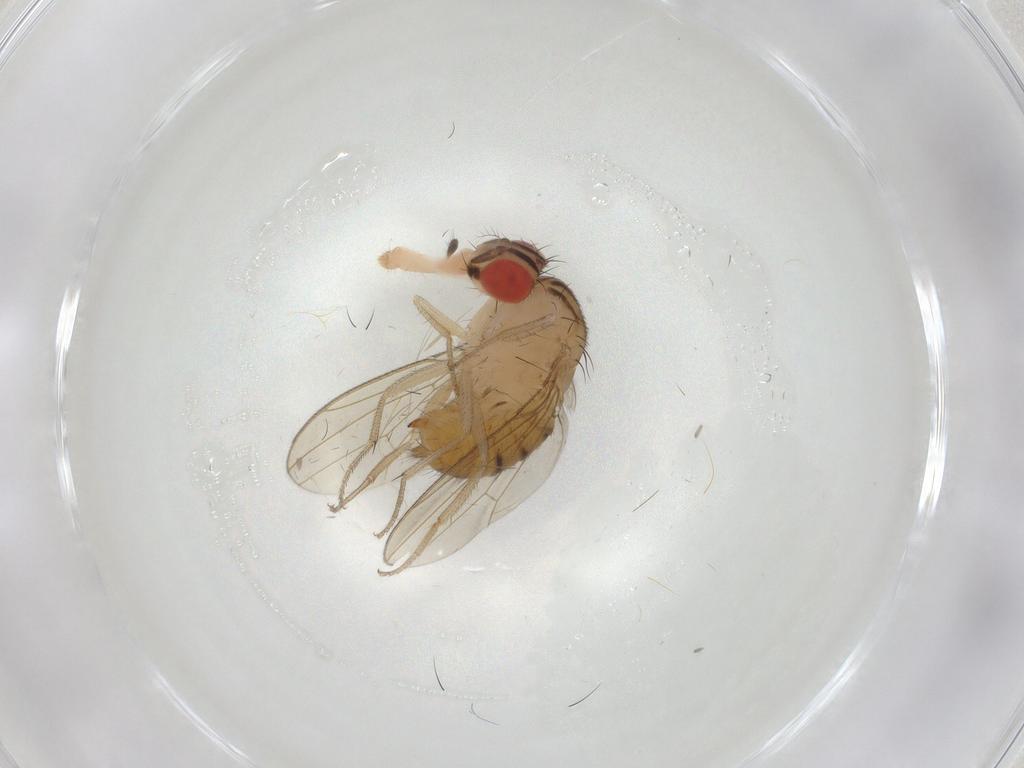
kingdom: Animalia
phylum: Arthropoda
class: Insecta
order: Diptera
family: Drosophilidae
